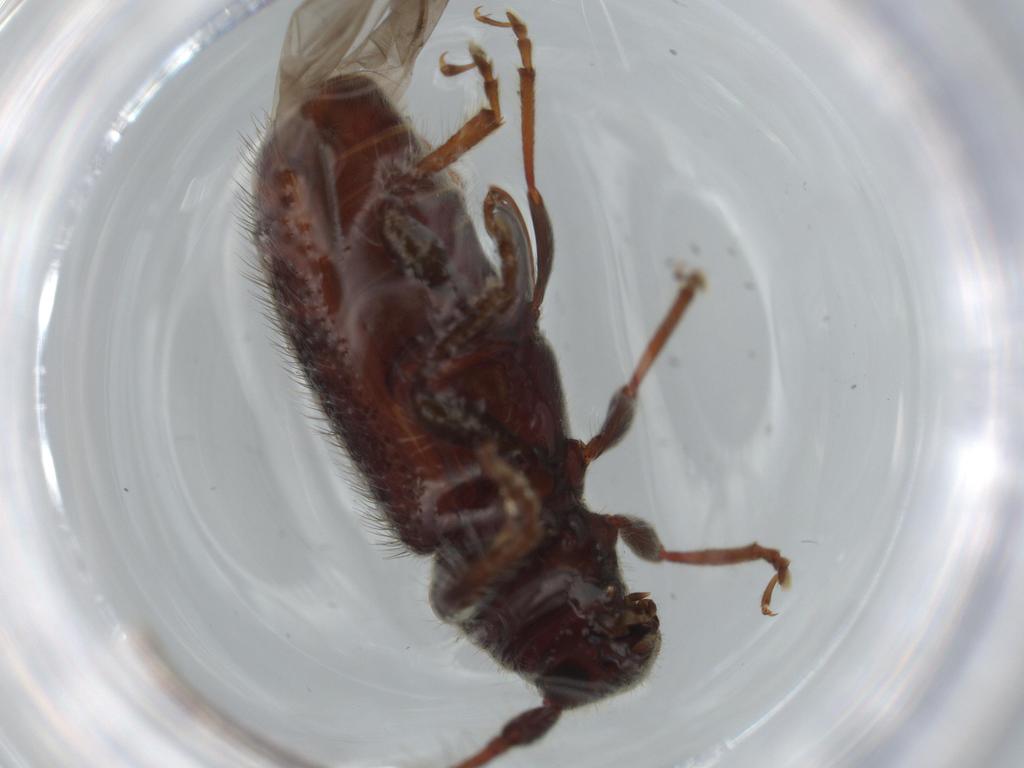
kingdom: Animalia
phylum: Arthropoda
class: Insecta
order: Coleoptera
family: Cerambycidae
